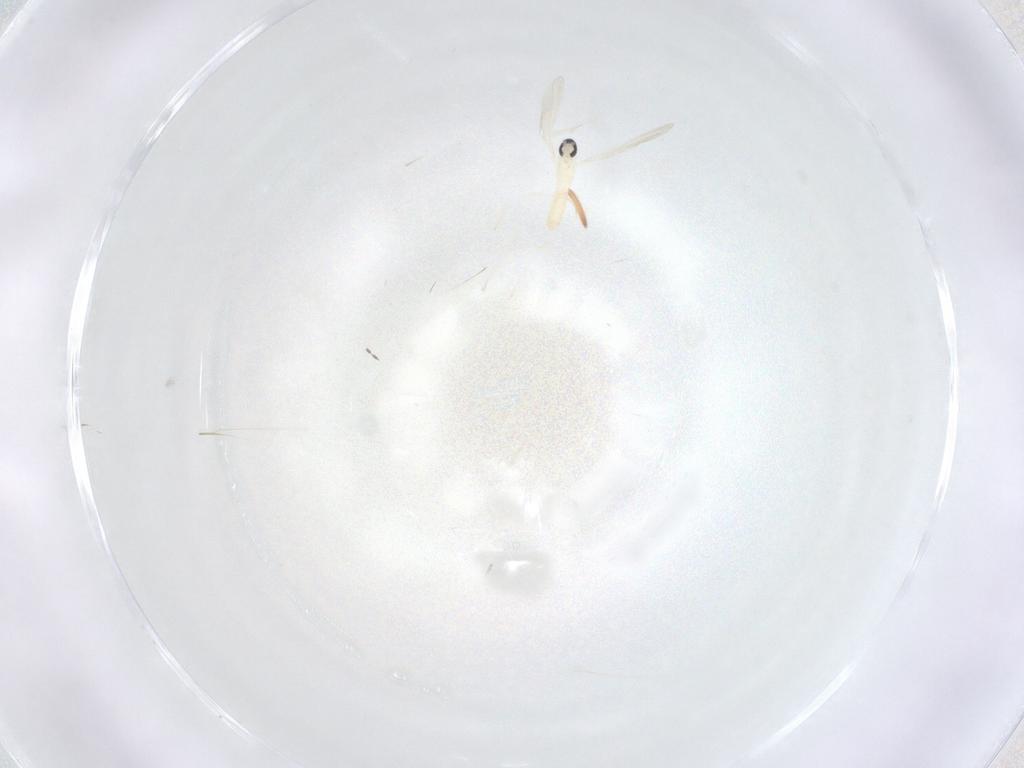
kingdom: Animalia
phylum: Arthropoda
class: Insecta
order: Diptera
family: Cecidomyiidae
